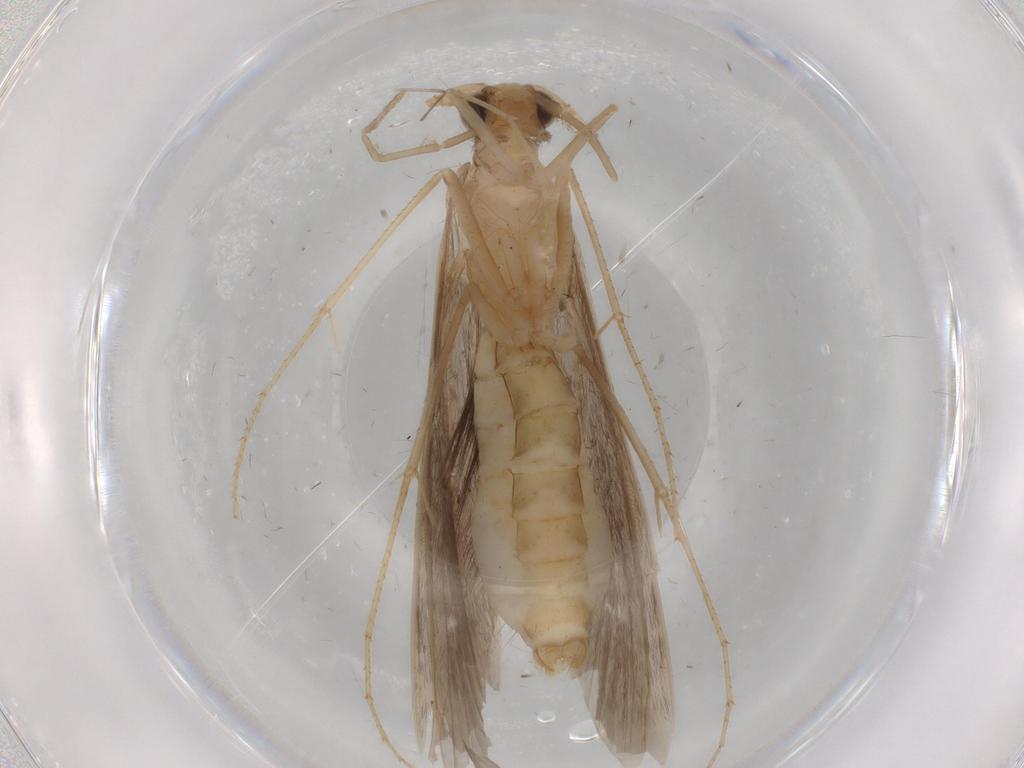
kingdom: Animalia
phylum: Arthropoda
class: Insecta
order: Trichoptera
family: Leptoceridae
